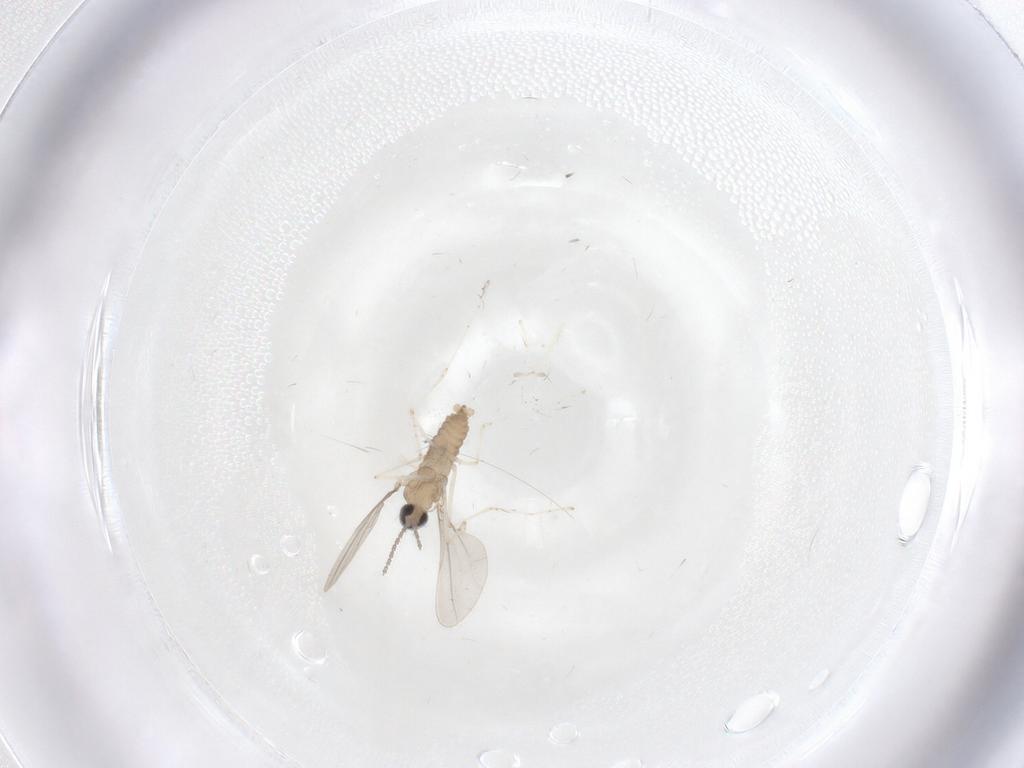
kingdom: Animalia
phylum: Arthropoda
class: Insecta
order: Diptera
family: Cecidomyiidae
